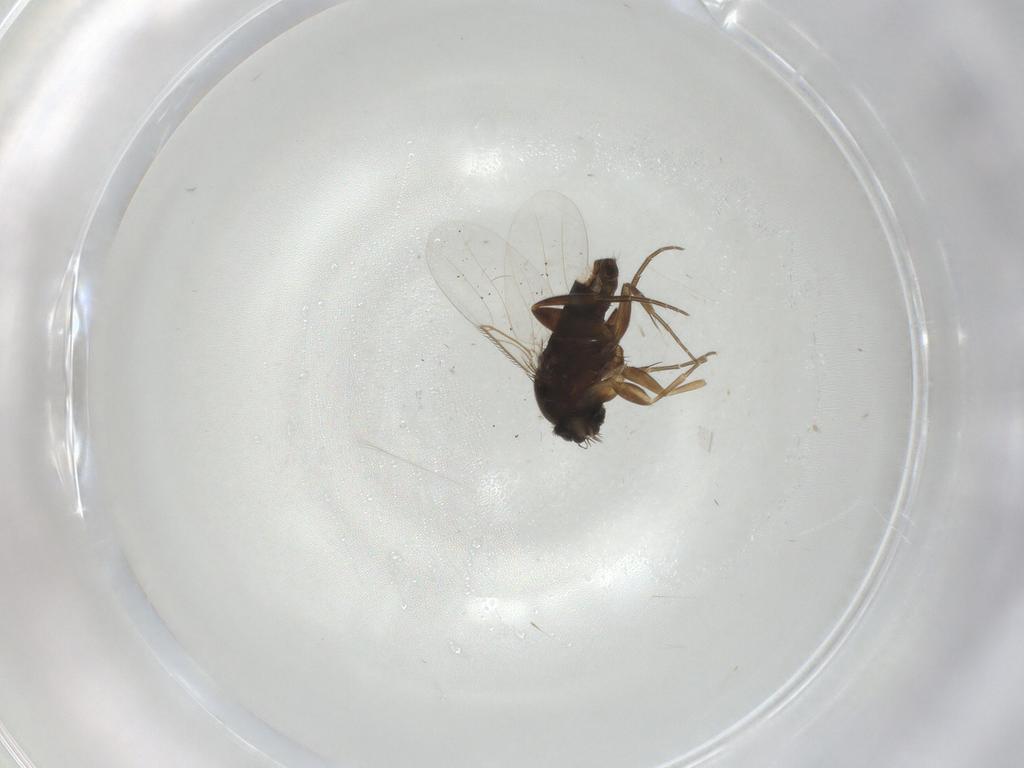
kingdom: Animalia
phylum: Arthropoda
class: Insecta
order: Diptera
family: Phoridae
